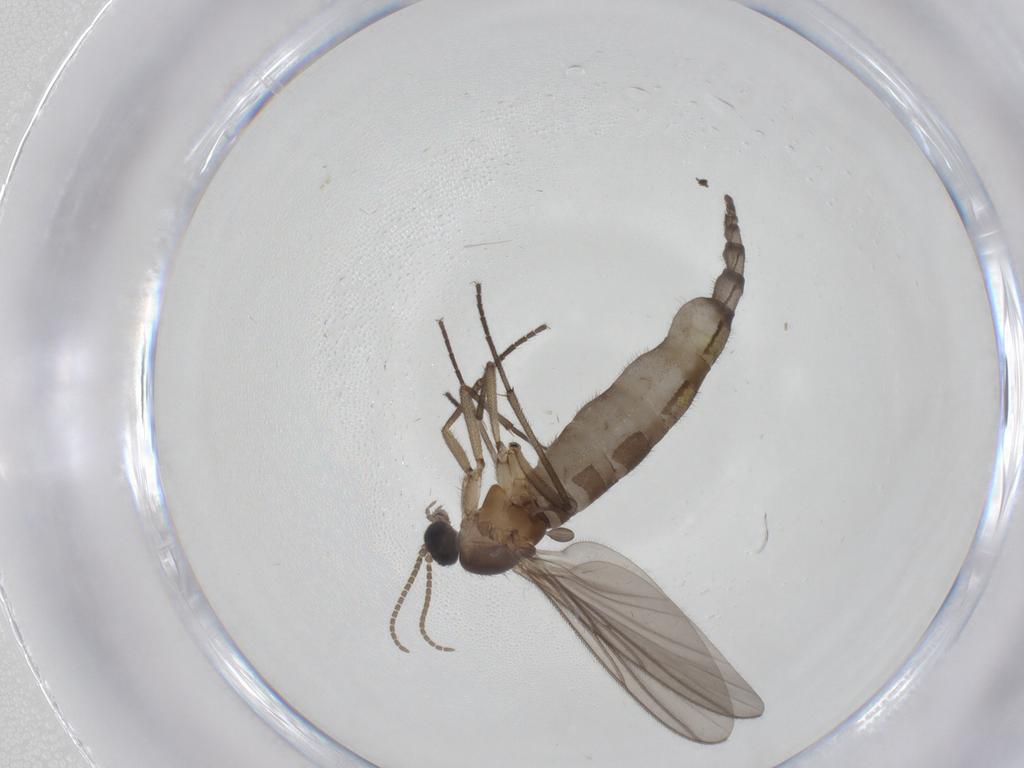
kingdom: Animalia
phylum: Arthropoda
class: Insecta
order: Diptera
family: Tabanidae
